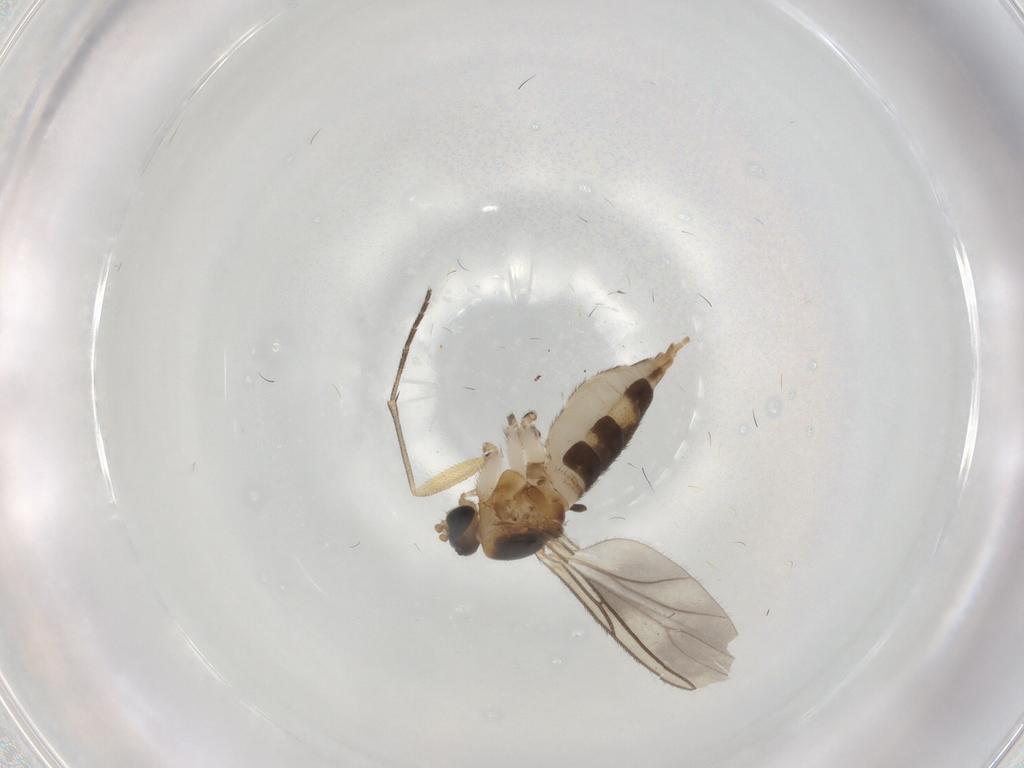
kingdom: Animalia
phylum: Arthropoda
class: Insecta
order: Diptera
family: Sciaridae
